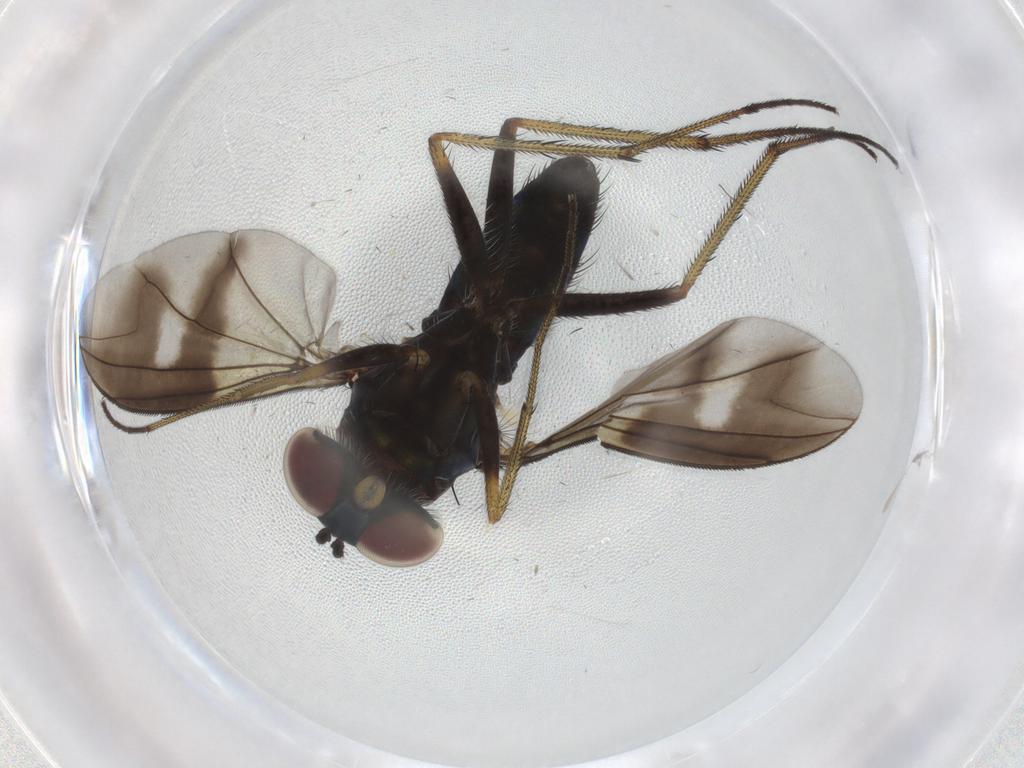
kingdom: Animalia
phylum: Arthropoda
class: Insecta
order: Diptera
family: Dolichopodidae
